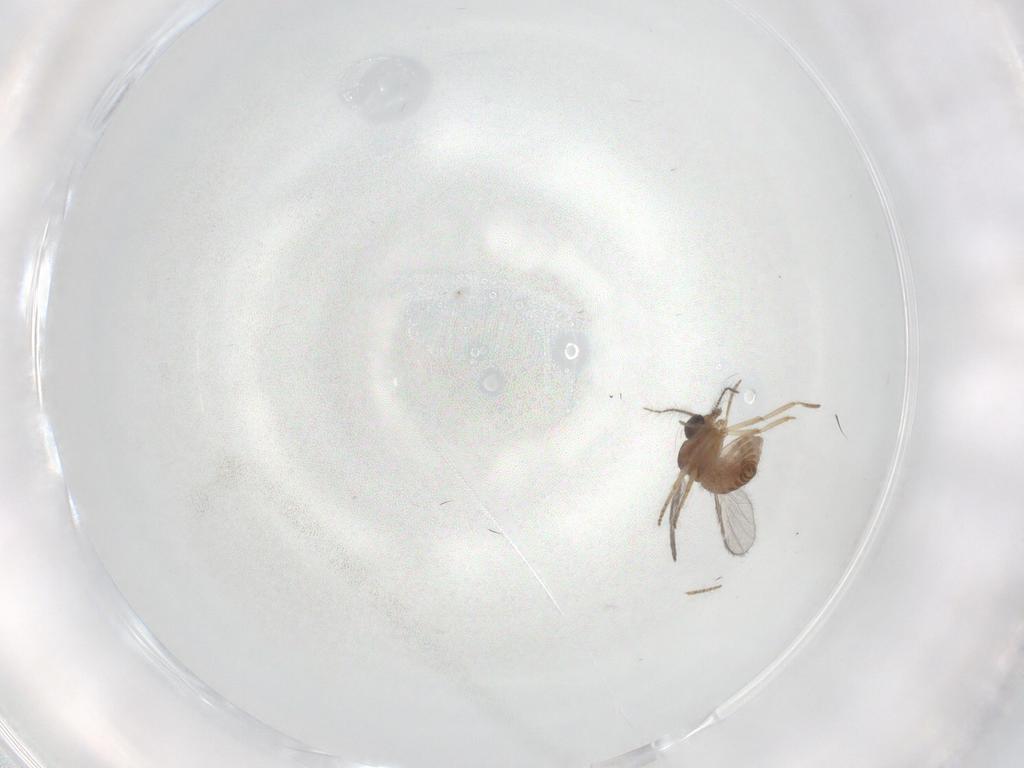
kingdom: Animalia
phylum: Arthropoda
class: Insecta
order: Diptera
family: Ceratopogonidae
